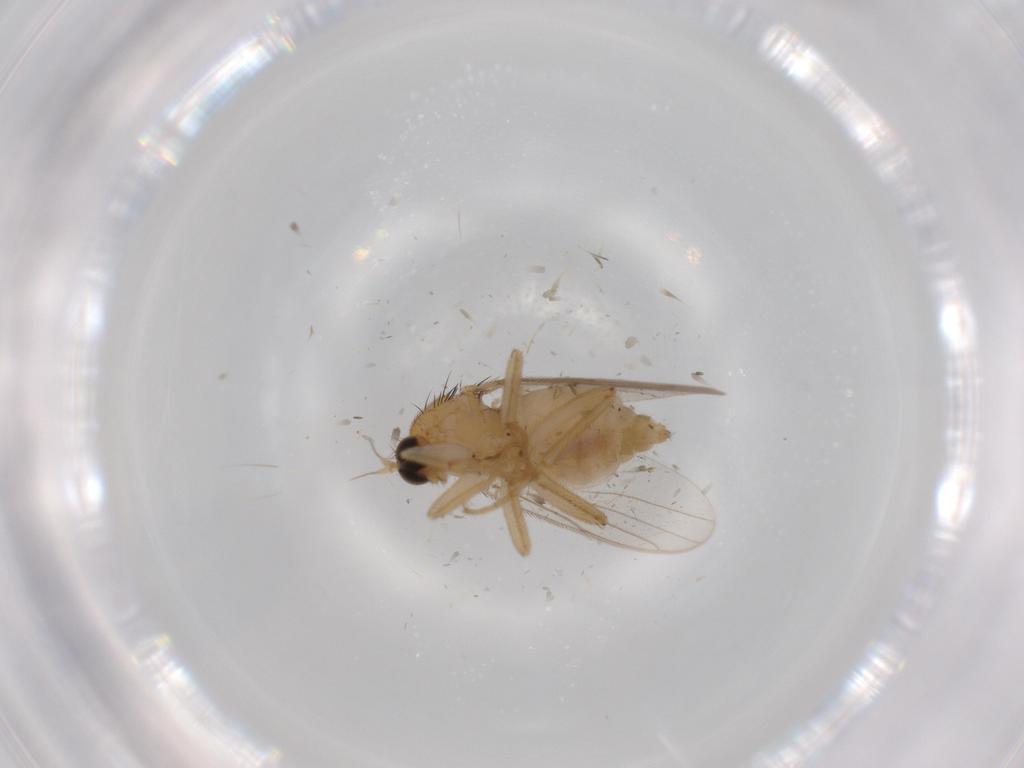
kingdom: Animalia
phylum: Arthropoda
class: Insecta
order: Diptera
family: Hybotidae
